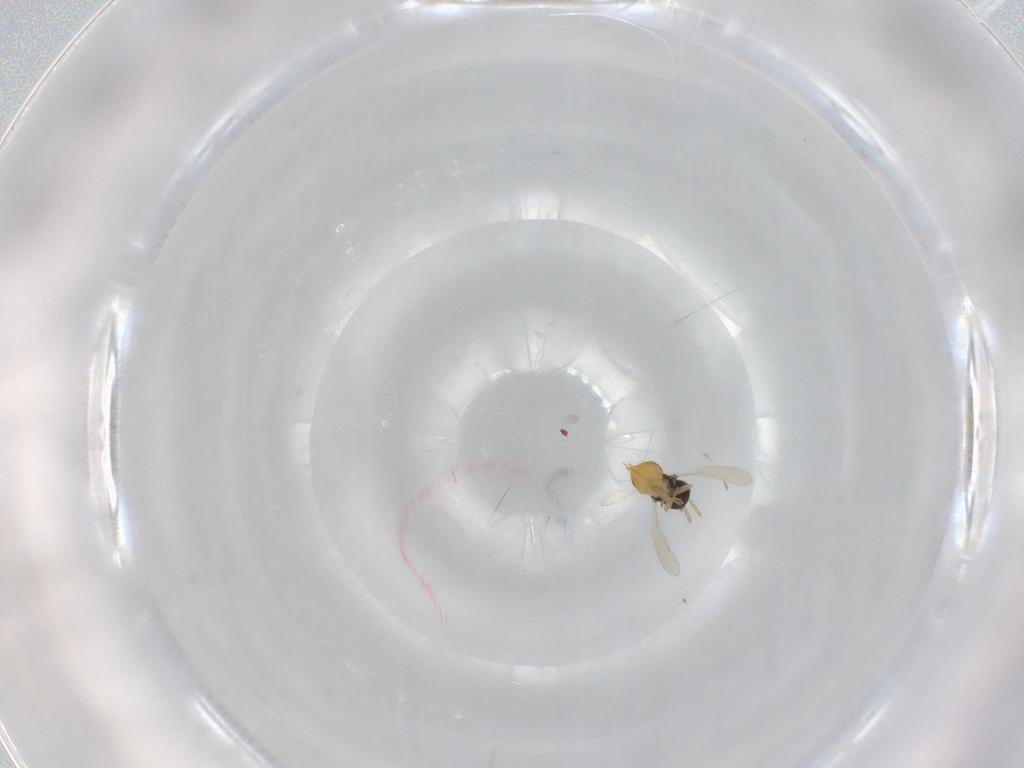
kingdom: Animalia
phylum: Arthropoda
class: Insecta
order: Hymenoptera
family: Aphelinidae
